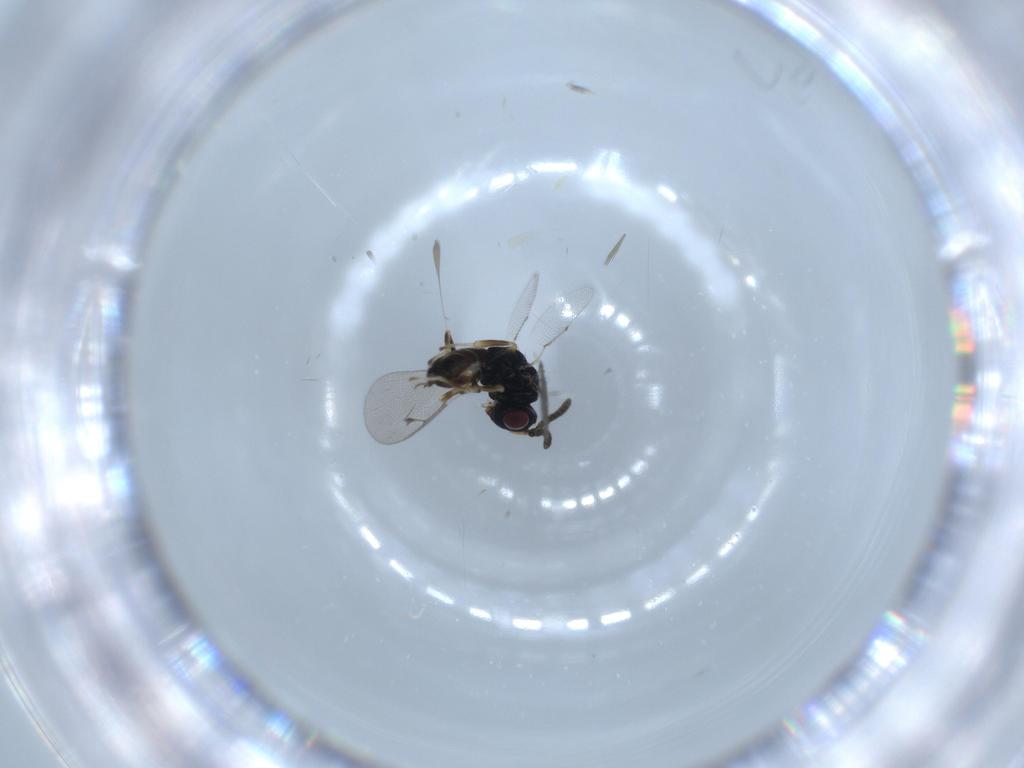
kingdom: Animalia
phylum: Arthropoda
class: Insecta
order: Hymenoptera
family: Pteromalidae
